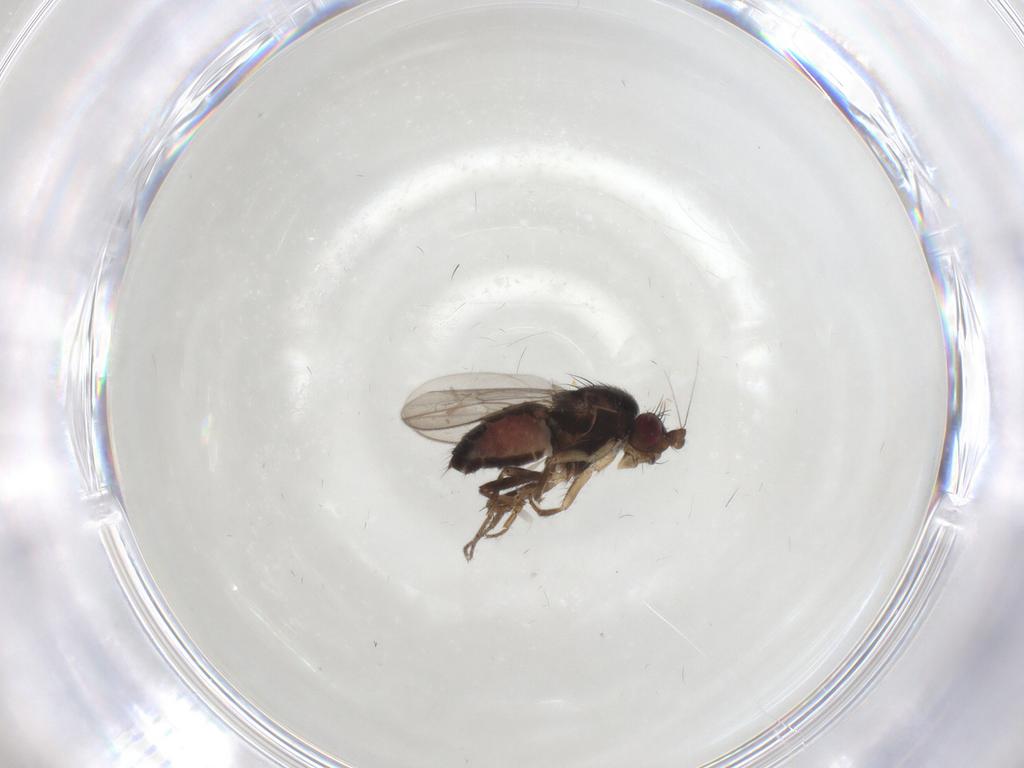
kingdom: Animalia
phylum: Arthropoda
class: Insecta
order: Diptera
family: Sphaeroceridae
